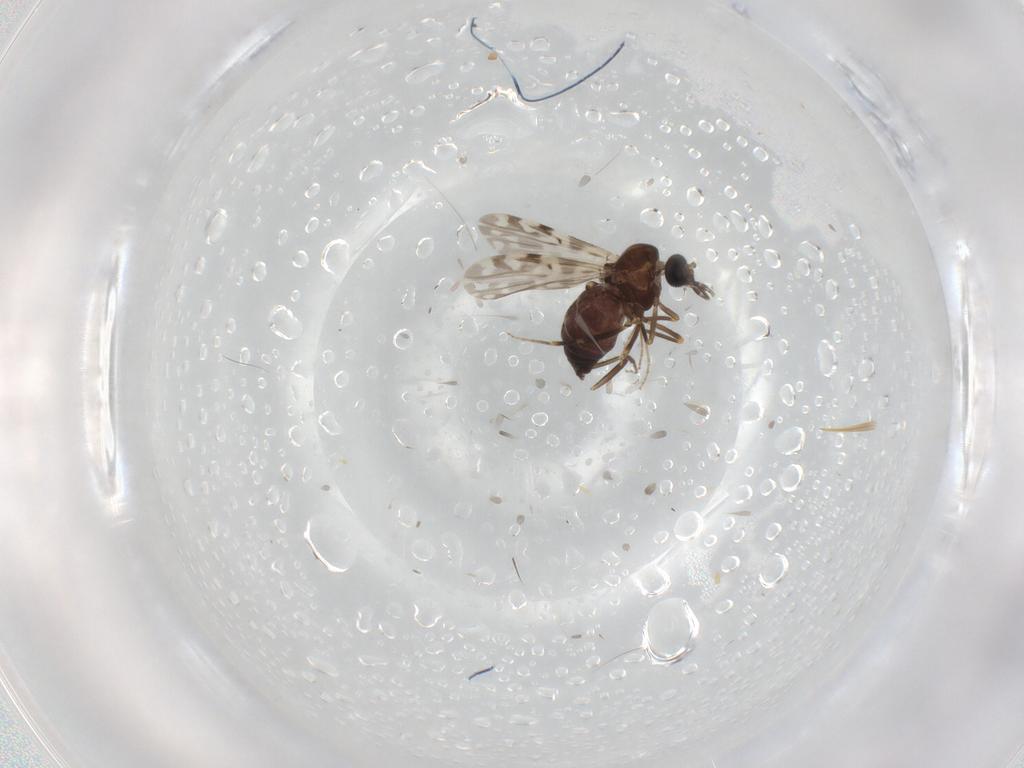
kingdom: Animalia
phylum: Arthropoda
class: Insecta
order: Diptera
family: Ceratopogonidae
